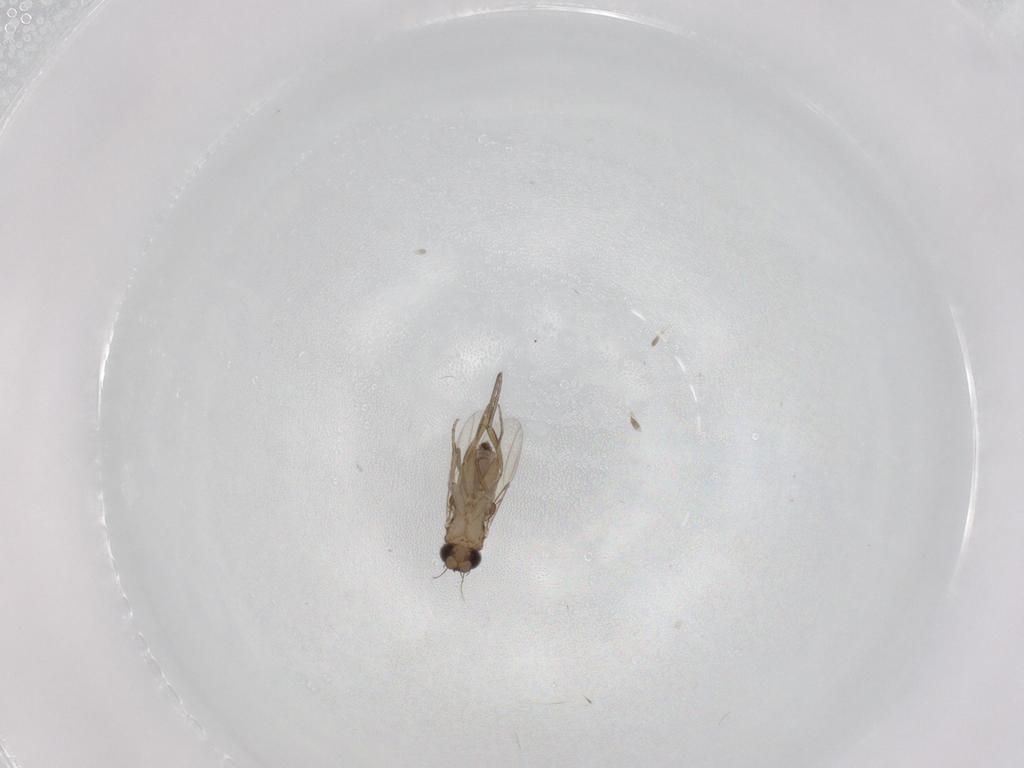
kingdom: Animalia
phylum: Arthropoda
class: Insecta
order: Diptera
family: Phoridae
